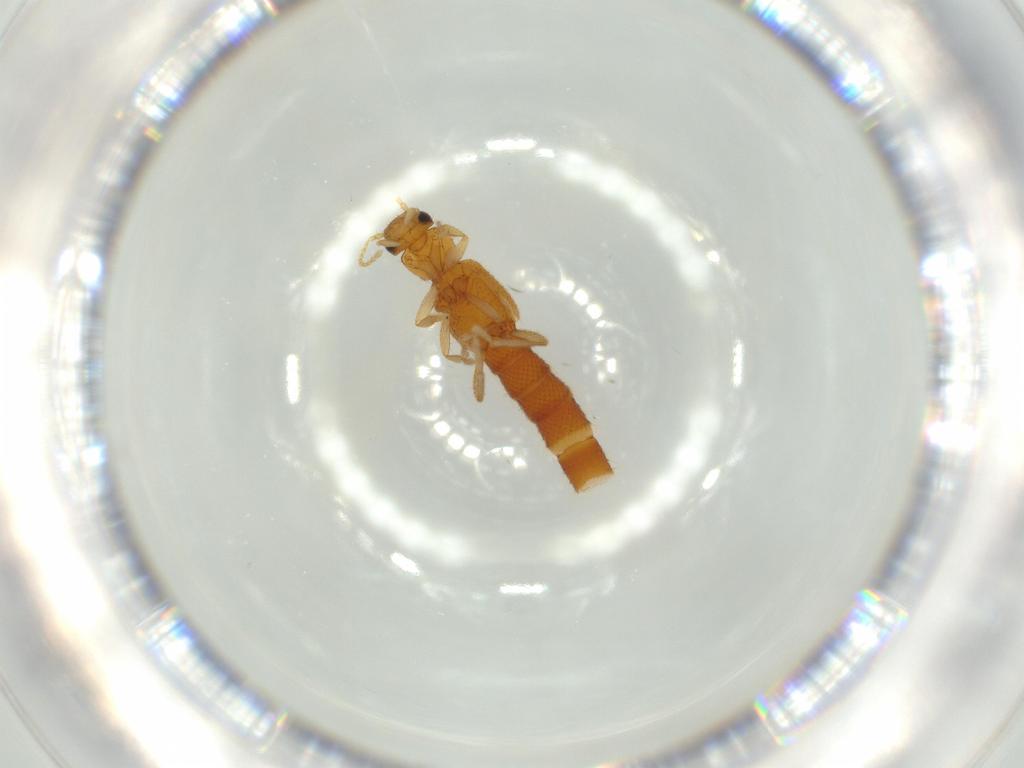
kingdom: Animalia
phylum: Arthropoda
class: Insecta
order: Coleoptera
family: Staphylinidae
